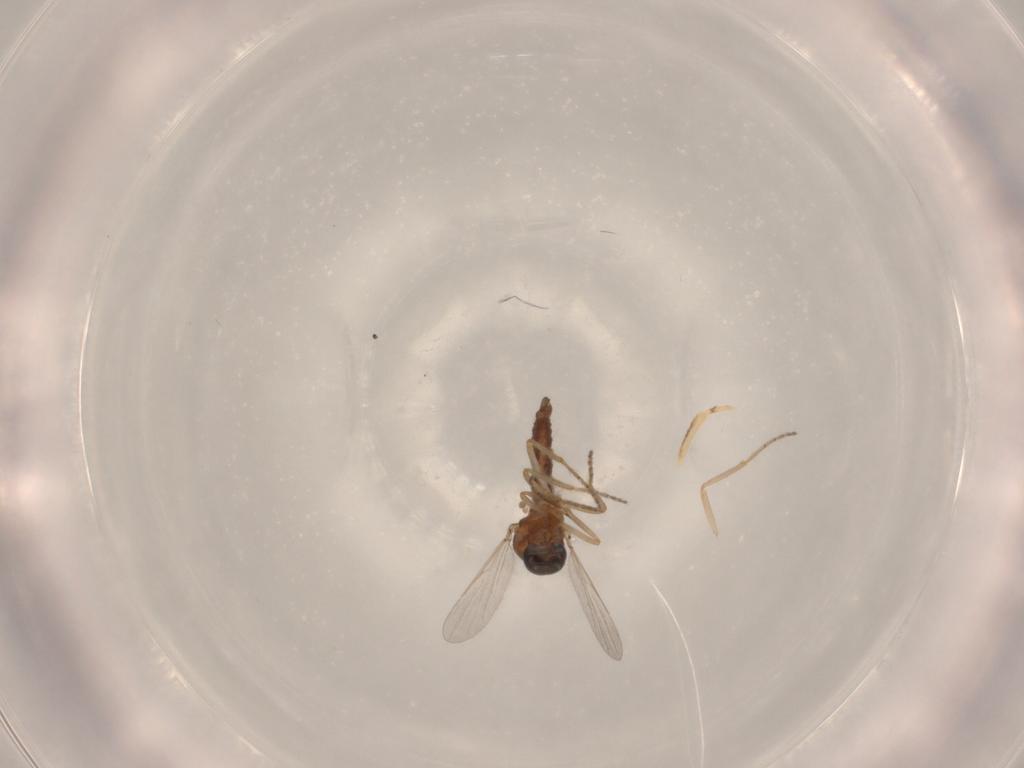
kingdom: Animalia
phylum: Arthropoda
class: Insecta
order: Diptera
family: Ceratopogonidae
